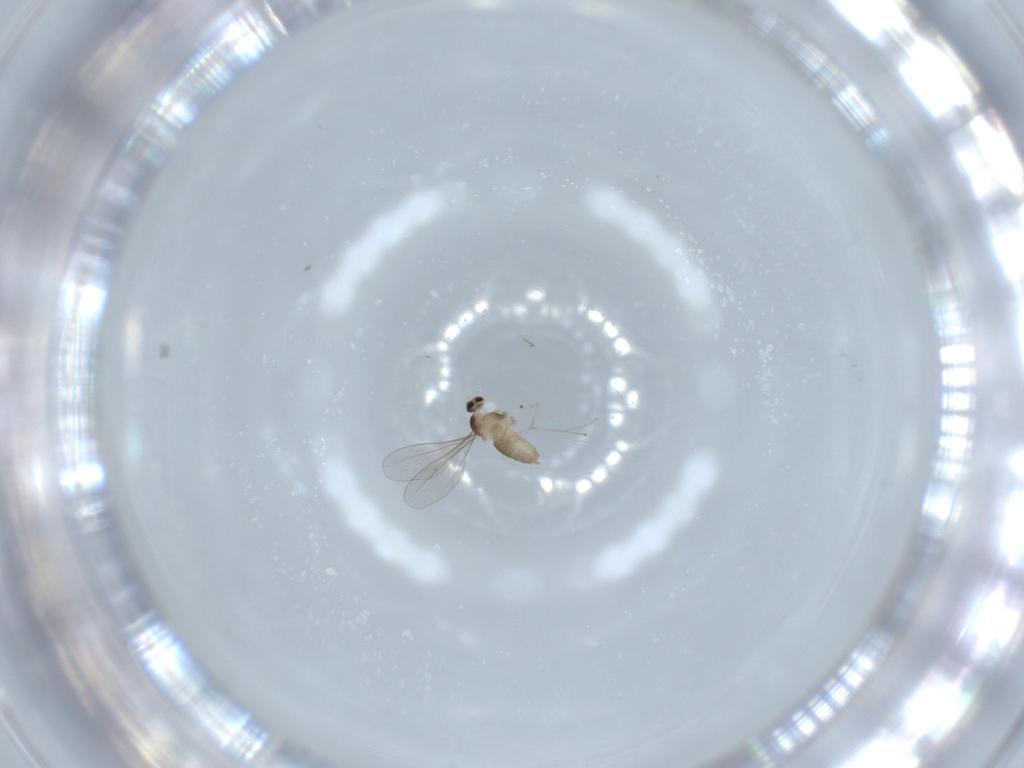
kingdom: Animalia
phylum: Arthropoda
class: Insecta
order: Diptera
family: Cecidomyiidae
